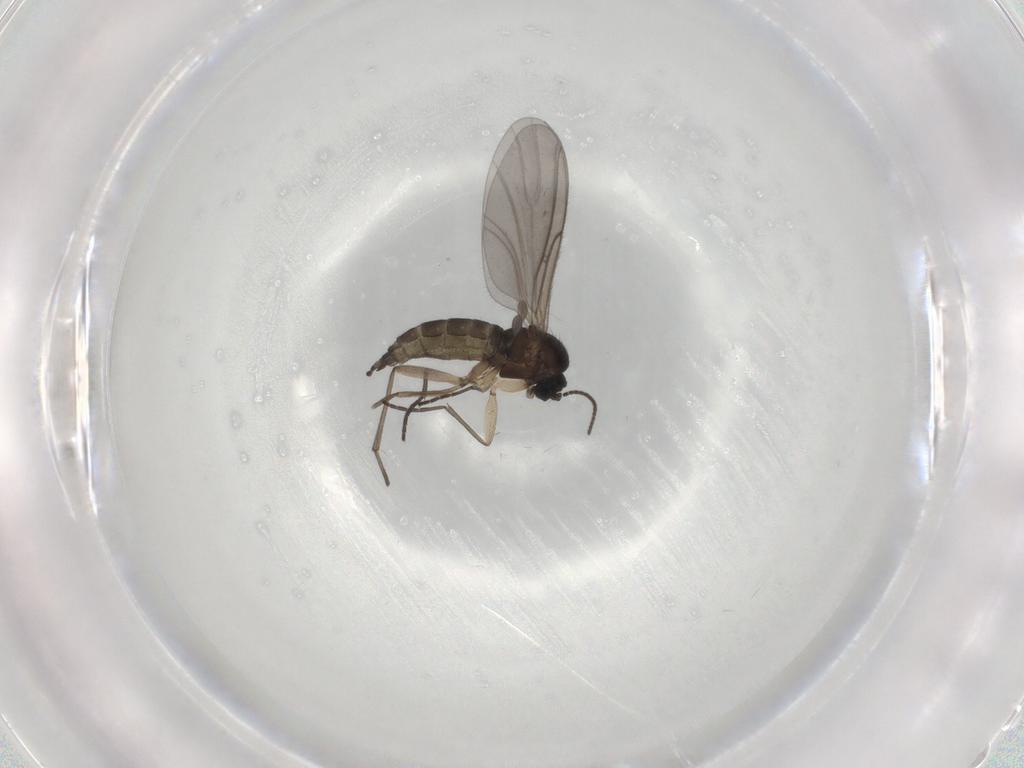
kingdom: Animalia
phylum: Arthropoda
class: Insecta
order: Diptera
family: Sciaridae
